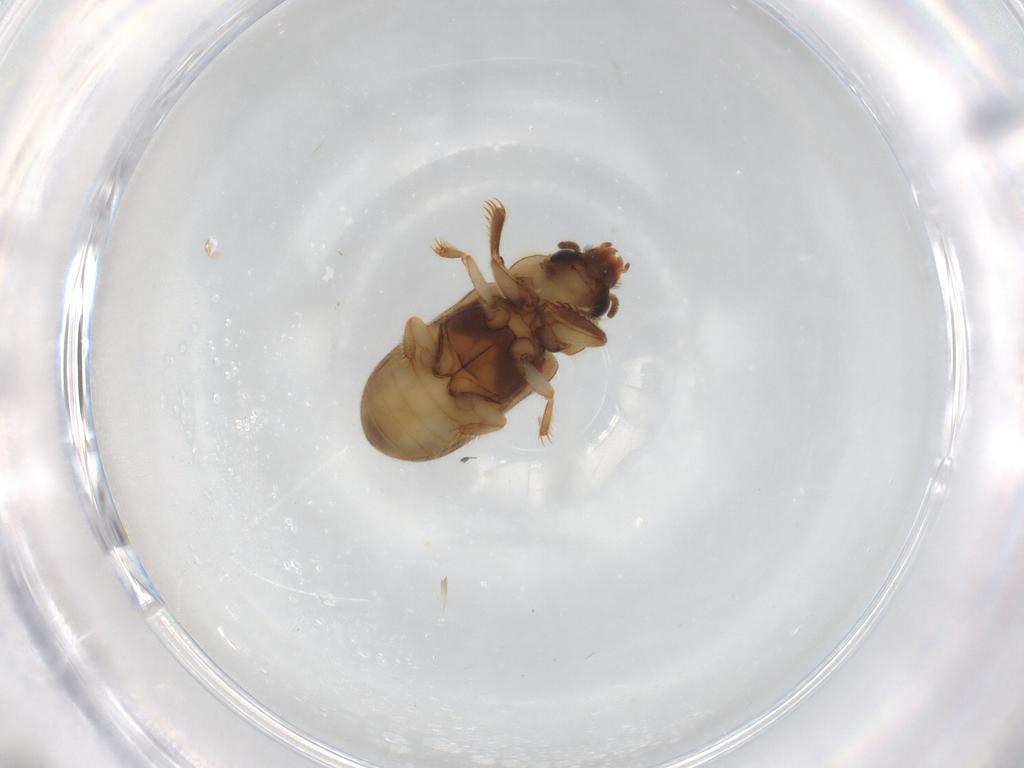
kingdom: Animalia
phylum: Arthropoda
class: Insecta
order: Coleoptera
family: Heteroceridae
